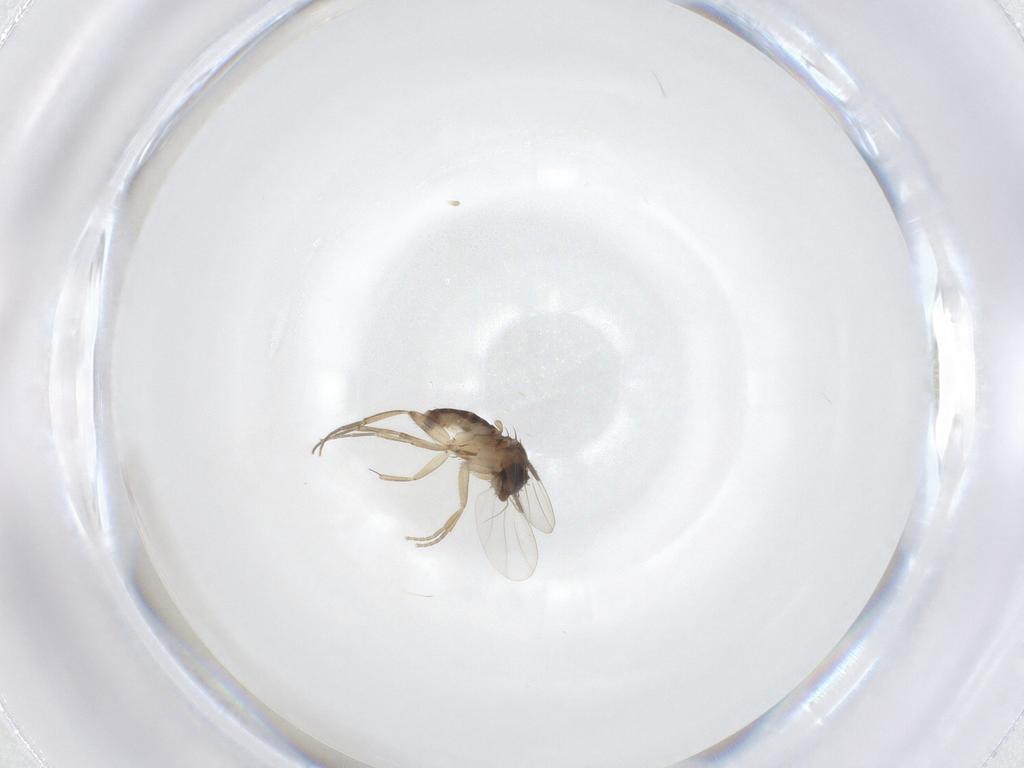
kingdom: Animalia
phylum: Arthropoda
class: Insecta
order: Diptera
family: Phoridae
